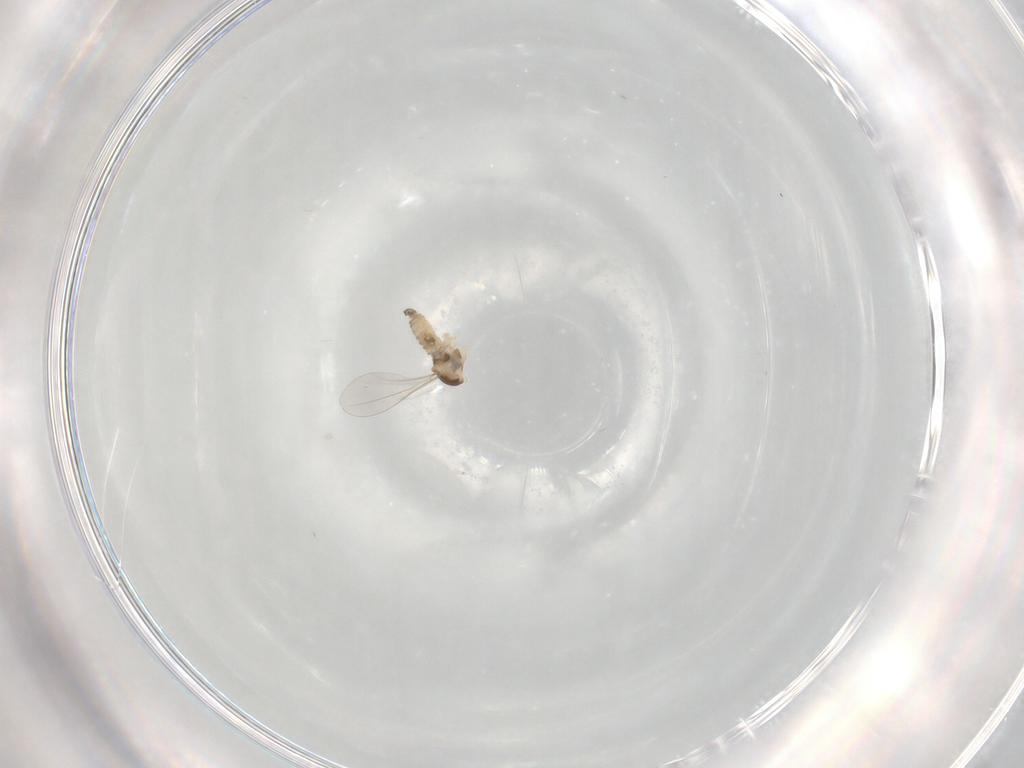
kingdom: Animalia
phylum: Arthropoda
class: Insecta
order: Diptera
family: Cecidomyiidae
